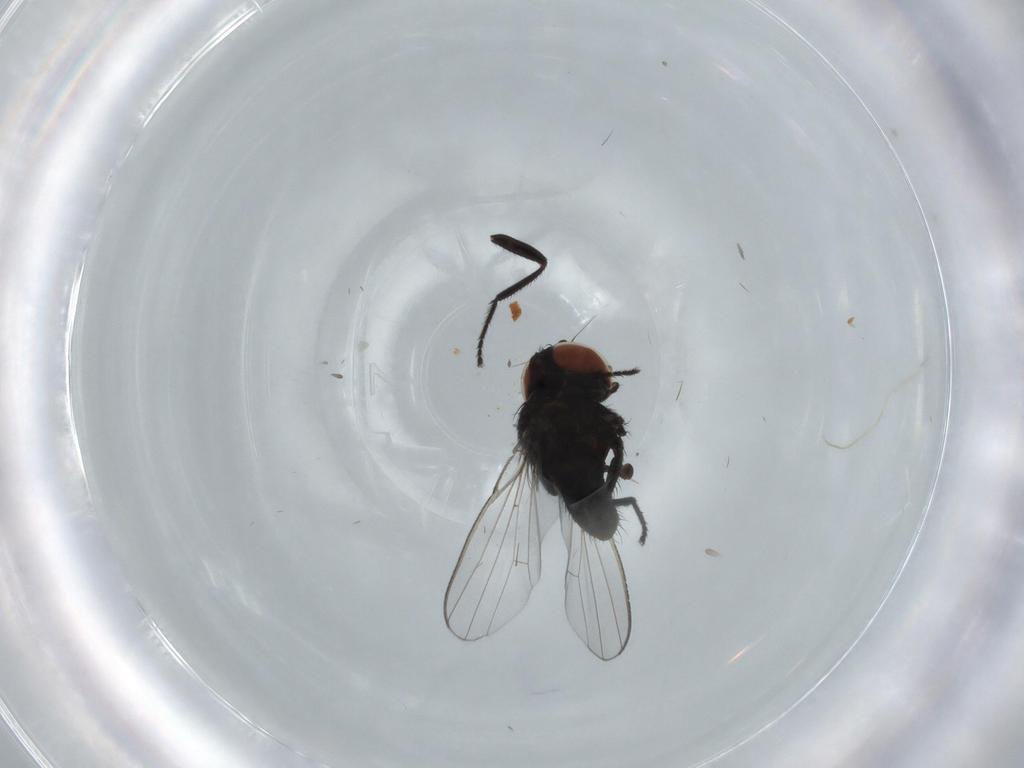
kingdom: Animalia
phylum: Arthropoda
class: Insecta
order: Diptera
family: Milichiidae
